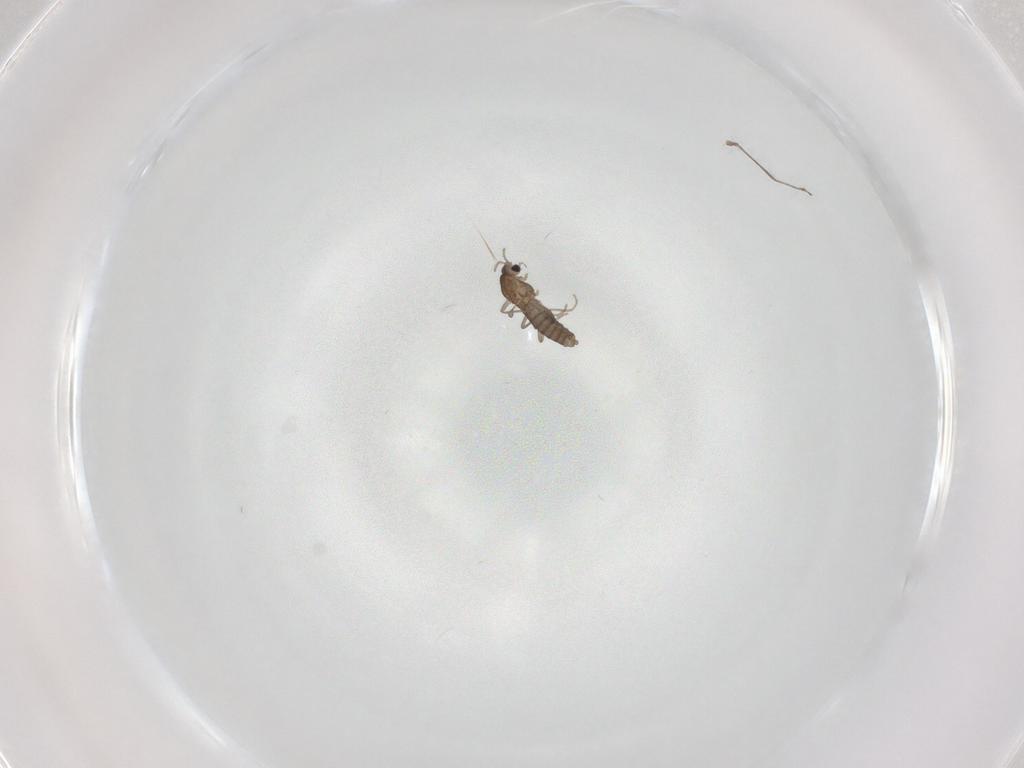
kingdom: Animalia
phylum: Arthropoda
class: Insecta
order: Diptera
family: Chironomidae
